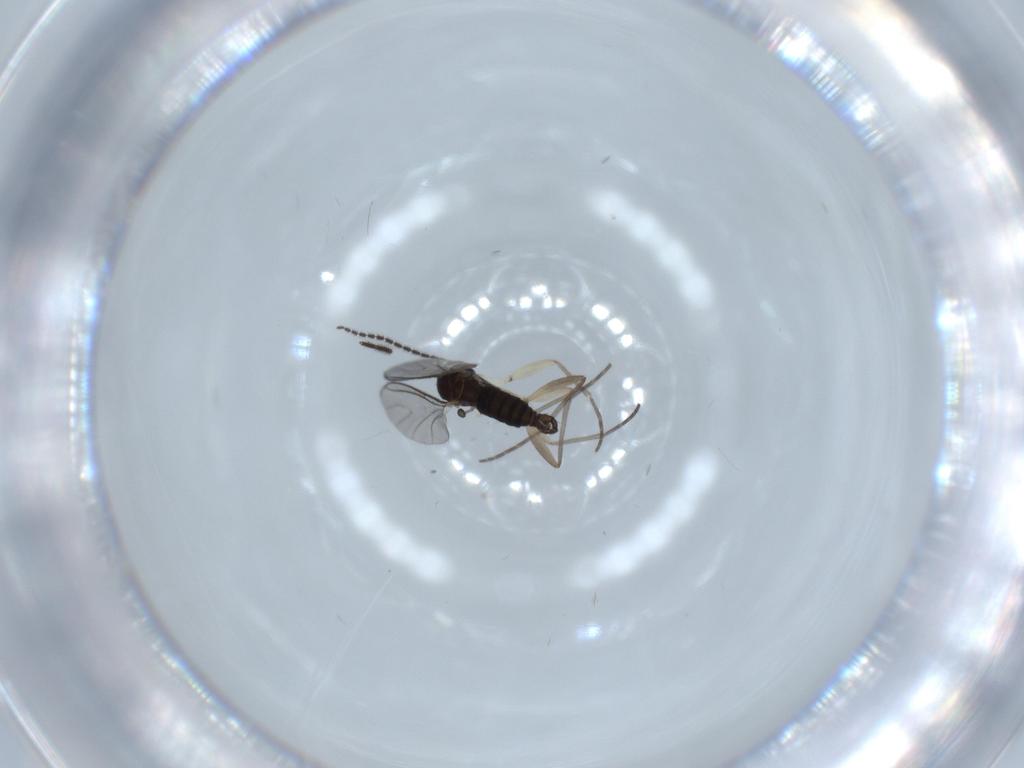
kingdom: Animalia
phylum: Arthropoda
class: Insecta
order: Diptera
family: Sciaridae
